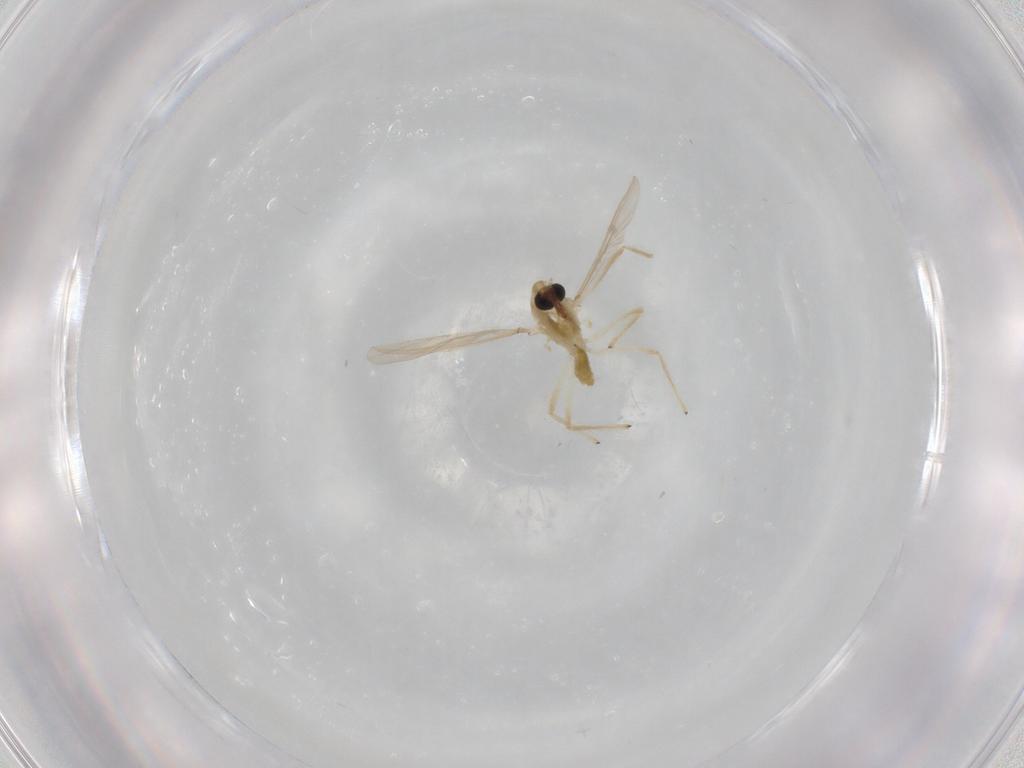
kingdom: Animalia
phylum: Arthropoda
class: Insecta
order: Diptera
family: Chironomidae
